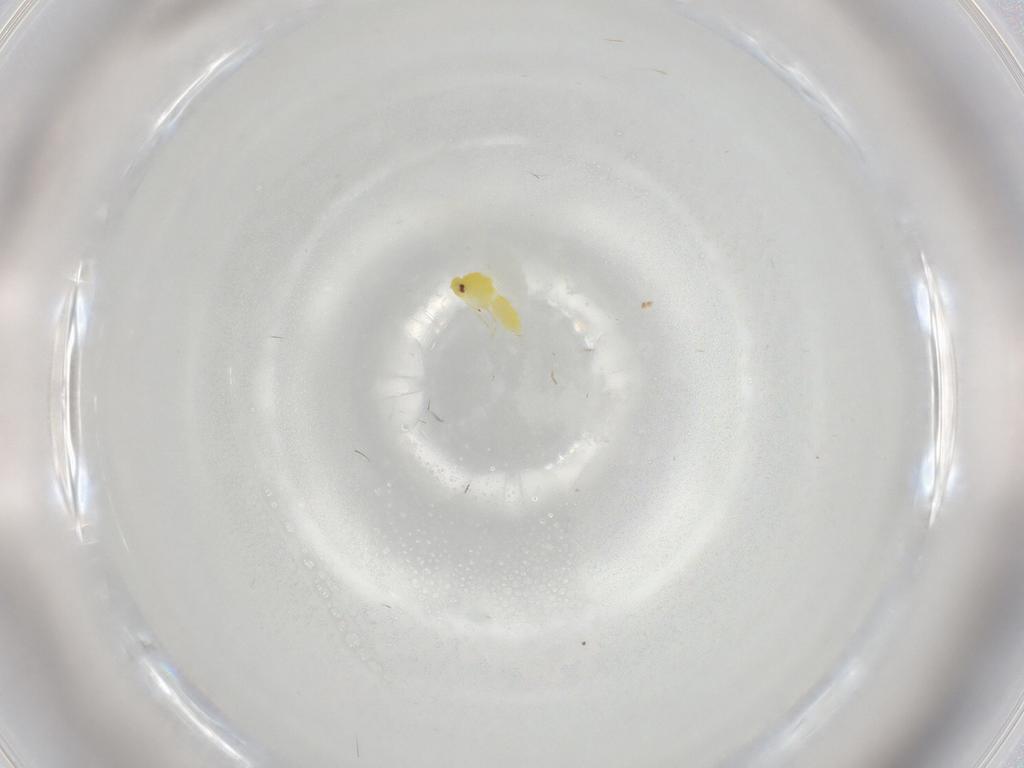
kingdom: Animalia
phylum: Arthropoda
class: Insecta
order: Hemiptera
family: Aleyrodidae
